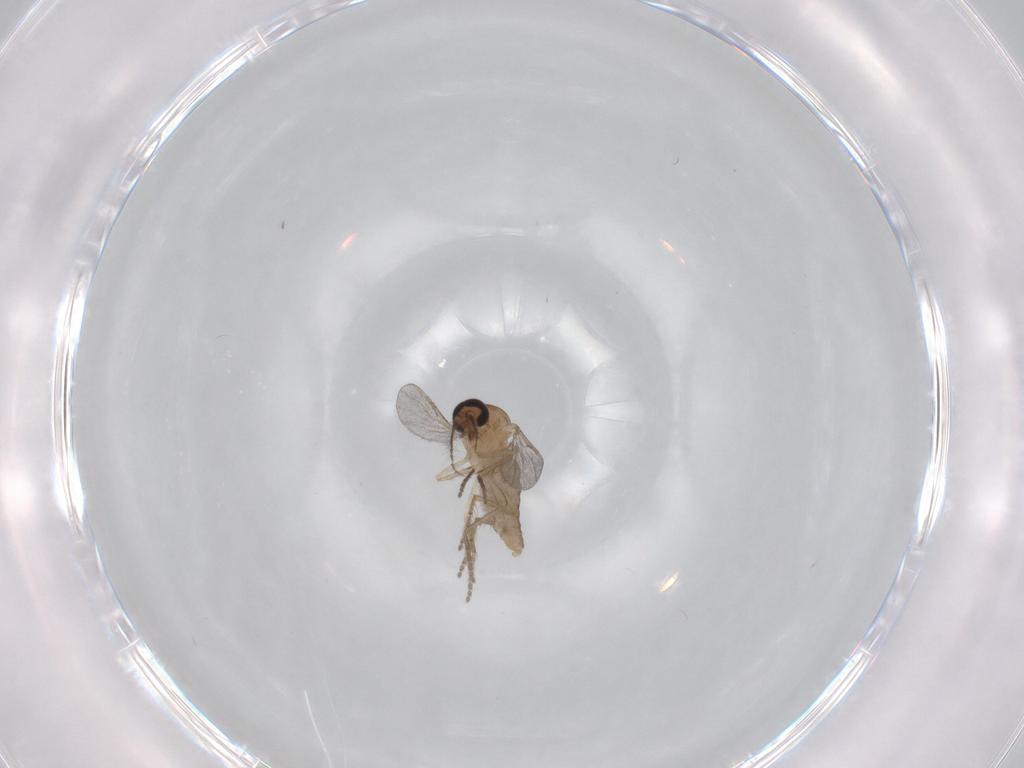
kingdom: Animalia
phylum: Arthropoda
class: Insecta
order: Diptera
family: Ceratopogonidae
